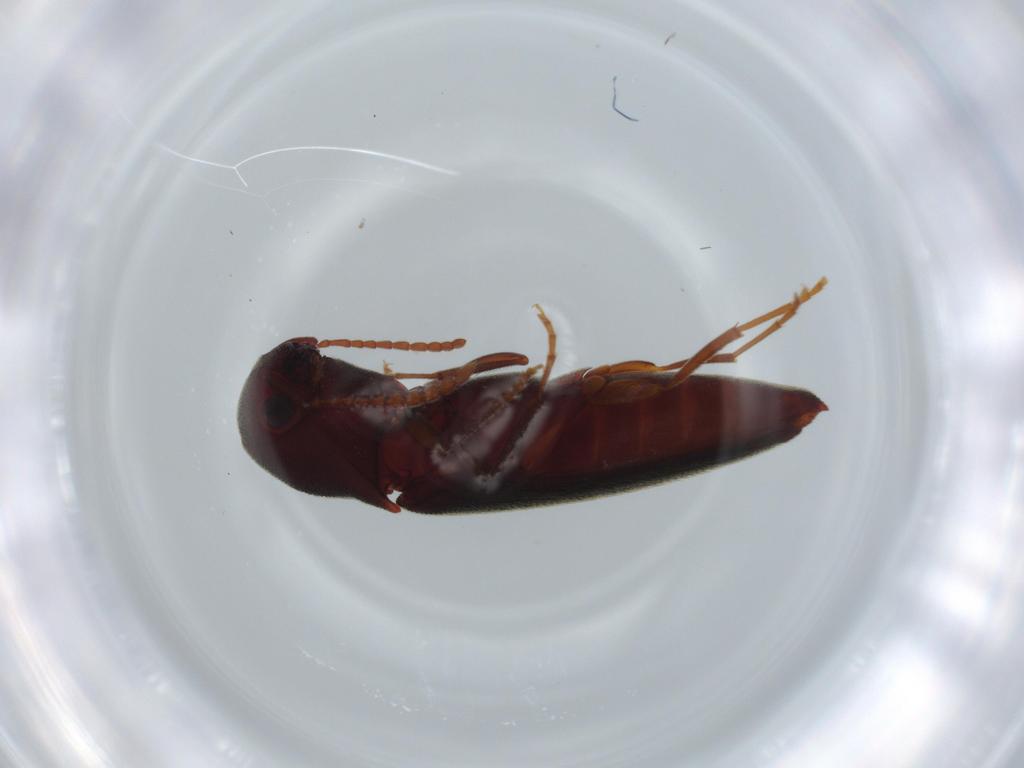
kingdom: Animalia
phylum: Arthropoda
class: Insecta
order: Coleoptera
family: Eucnemidae
